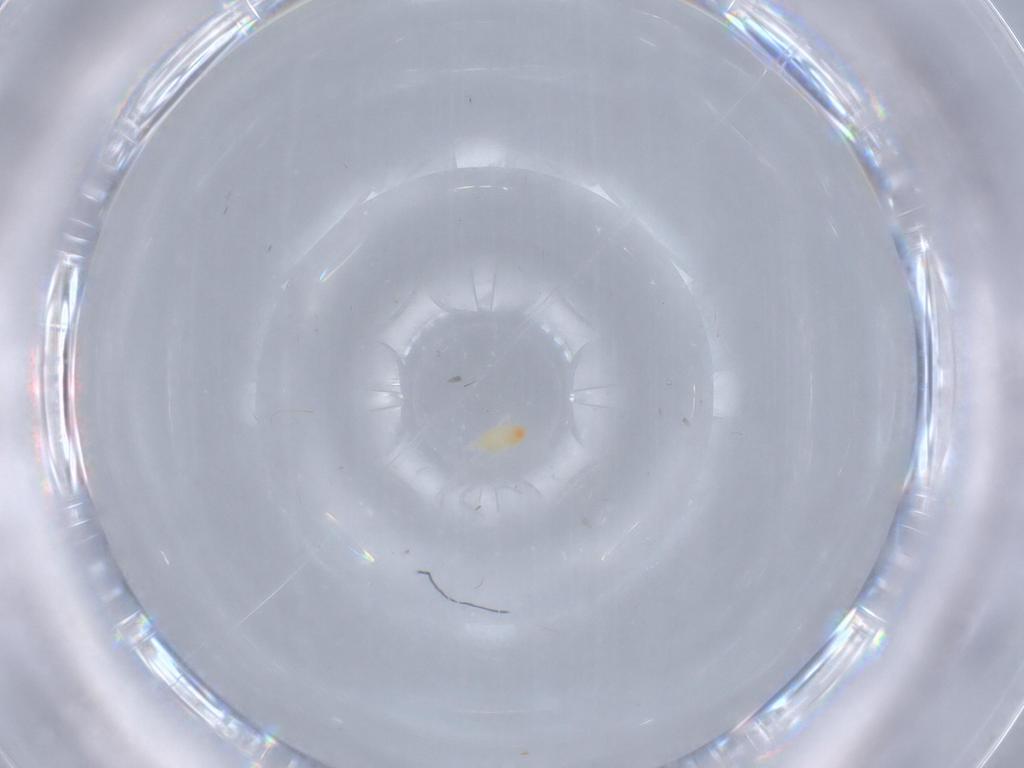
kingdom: Animalia
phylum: Arthropoda
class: Arachnida
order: Trombidiformes
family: Eupodidae
